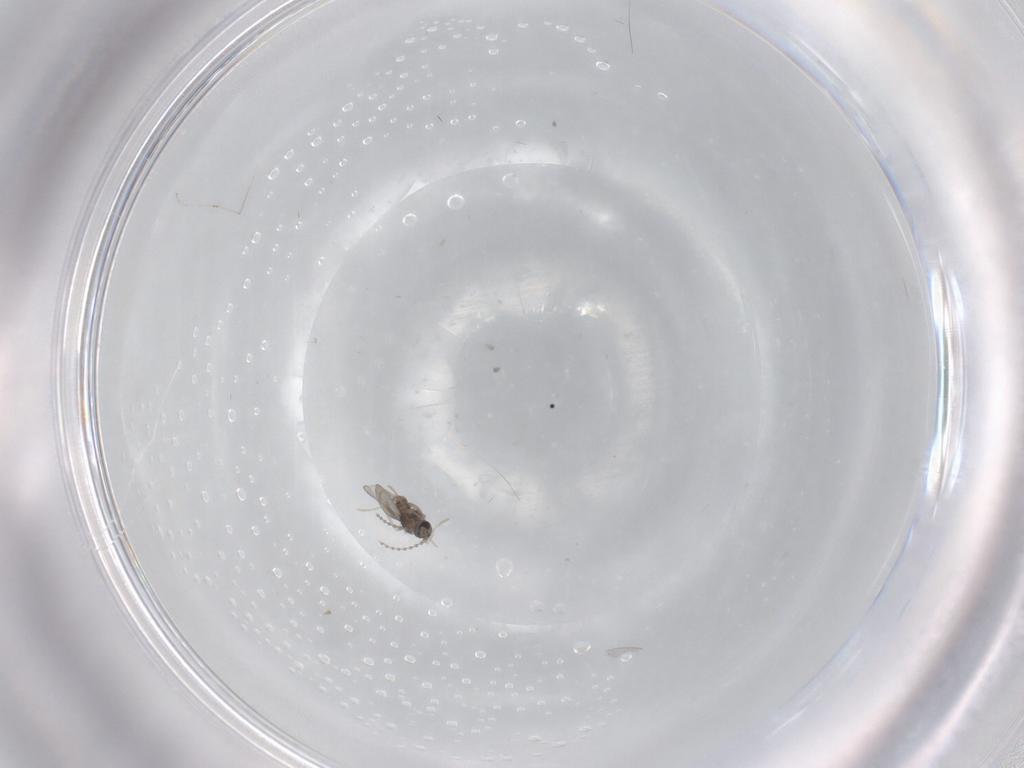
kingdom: Animalia
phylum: Arthropoda
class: Insecta
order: Diptera
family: Cecidomyiidae
